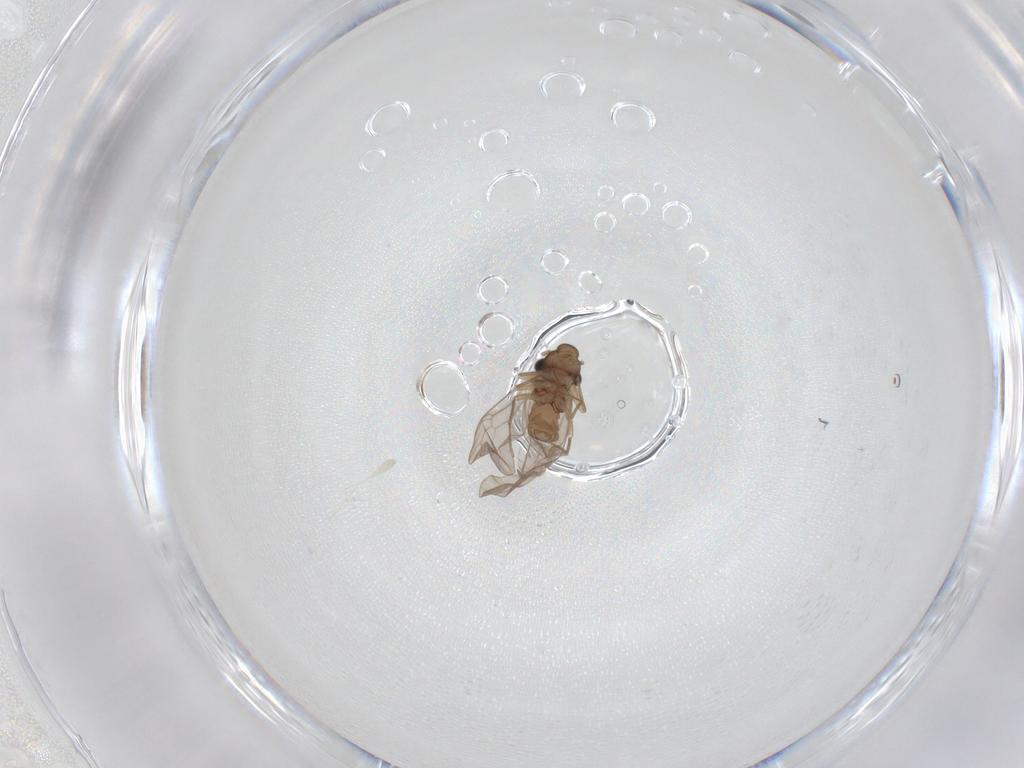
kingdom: Animalia
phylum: Arthropoda
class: Insecta
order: Psocodea
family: Lepidopsocidae
